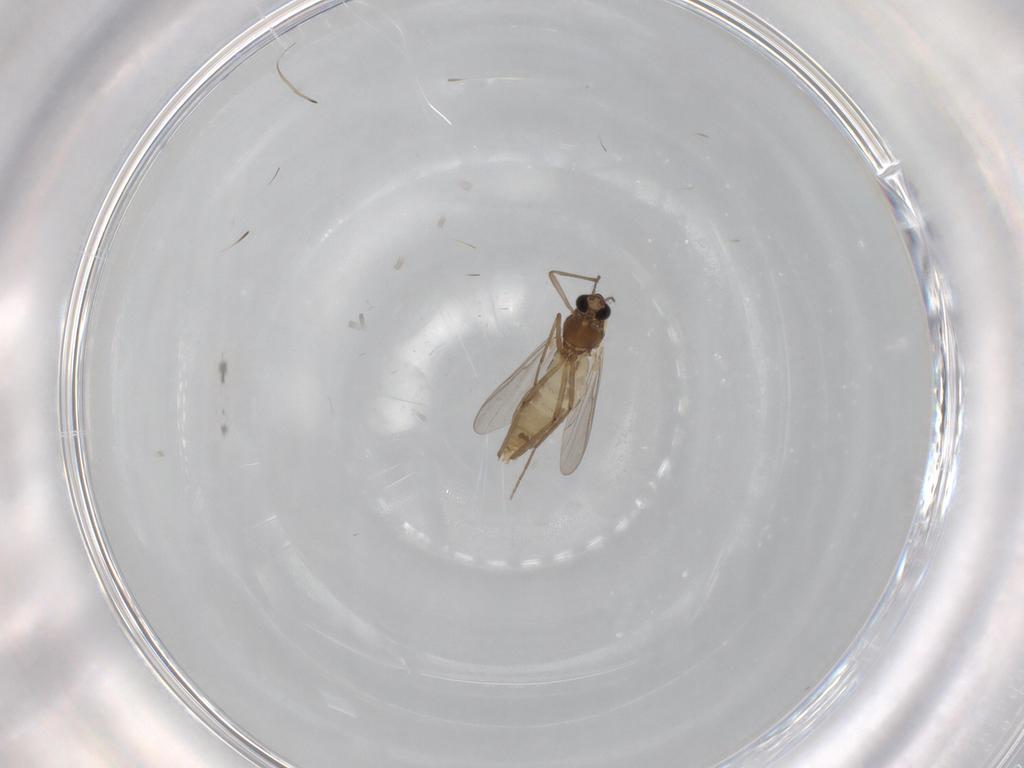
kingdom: Animalia
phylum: Arthropoda
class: Insecta
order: Diptera
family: Chironomidae
